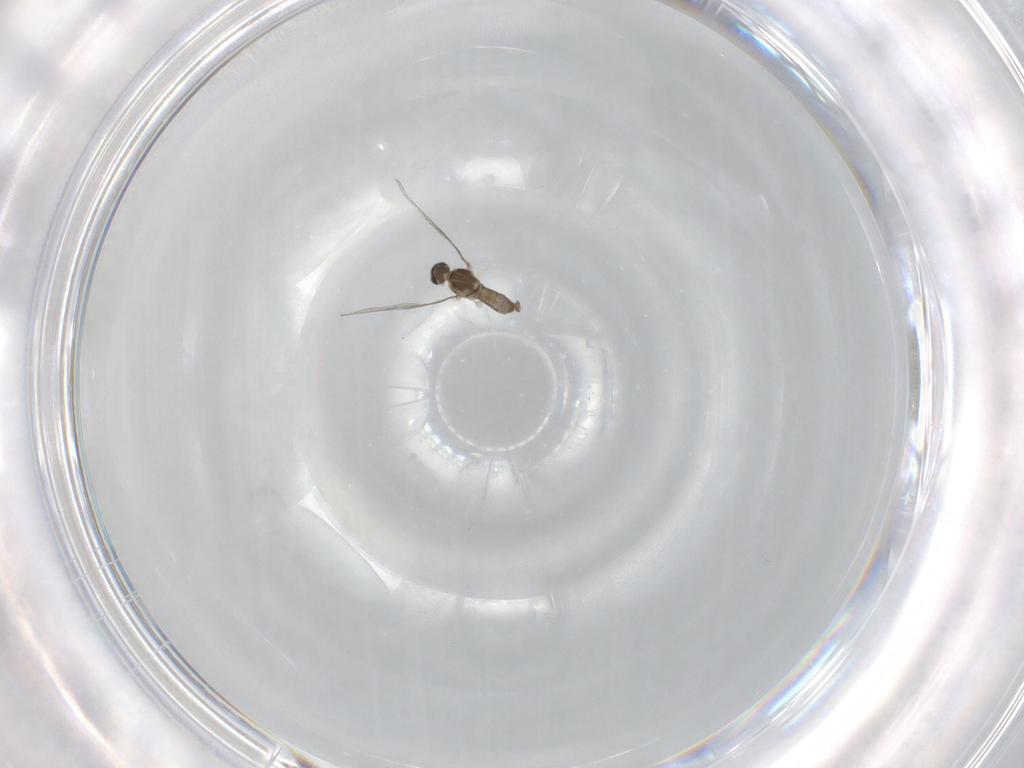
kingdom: Animalia
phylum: Arthropoda
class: Insecta
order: Diptera
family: Cecidomyiidae
